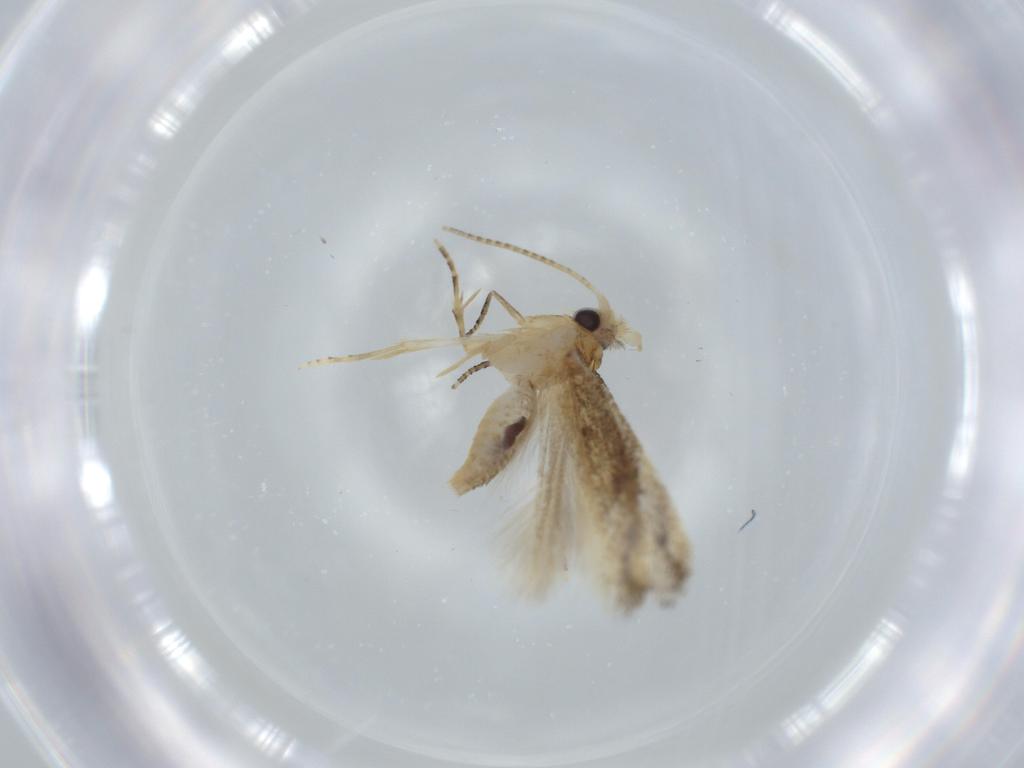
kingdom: Animalia
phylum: Arthropoda
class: Insecta
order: Lepidoptera
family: Bucculatricidae
